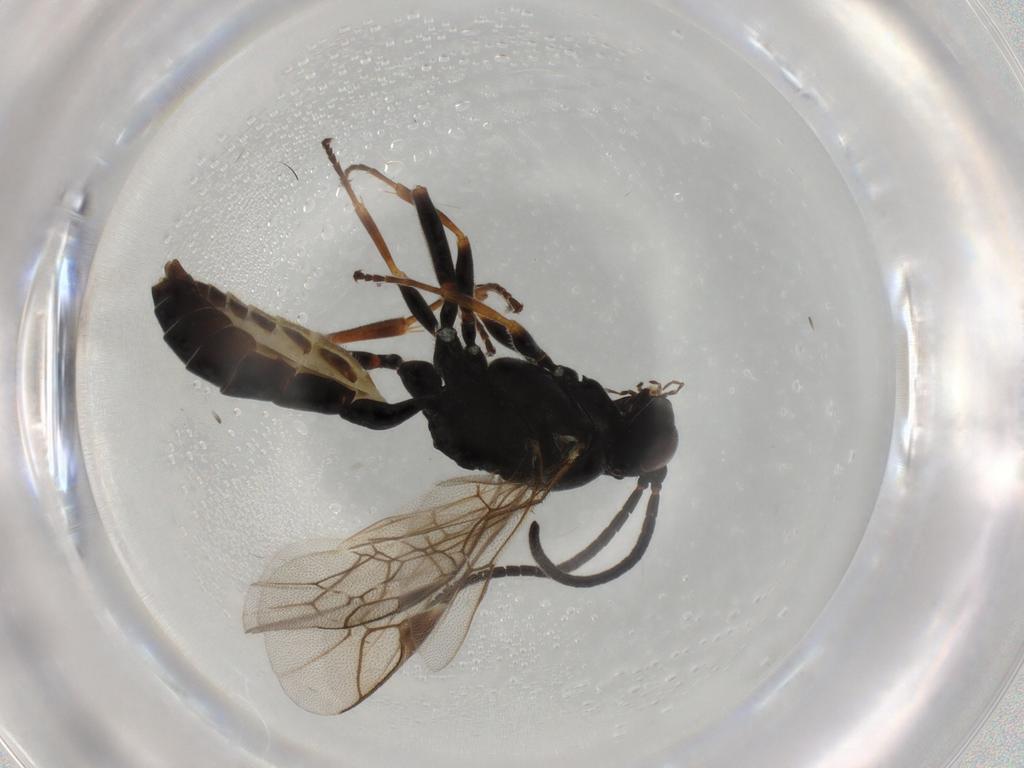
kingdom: Animalia
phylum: Arthropoda
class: Insecta
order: Hymenoptera
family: Ichneumonidae
